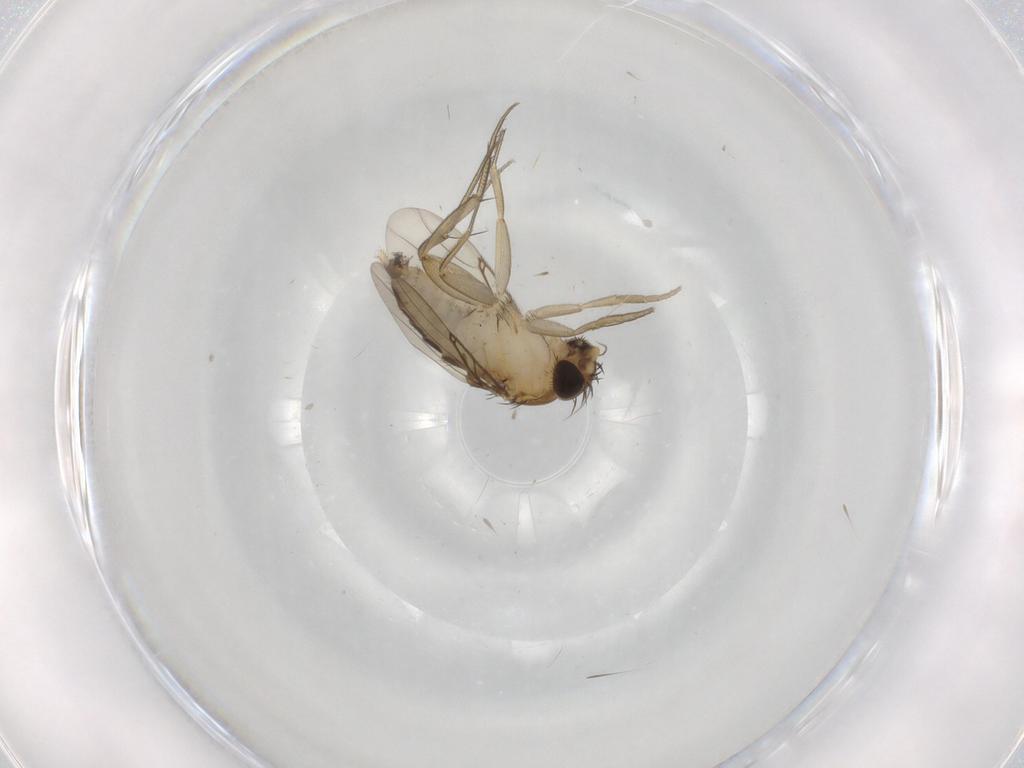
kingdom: Animalia
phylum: Arthropoda
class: Insecta
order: Diptera
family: Phoridae
